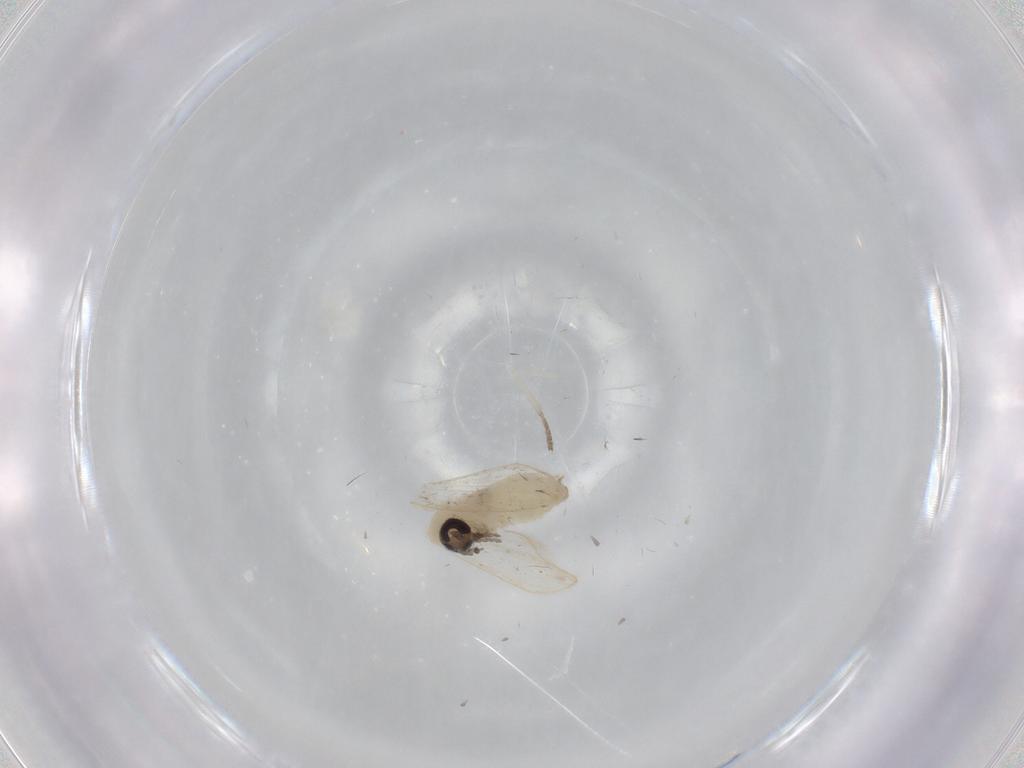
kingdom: Animalia
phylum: Arthropoda
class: Insecta
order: Diptera
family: Psychodidae
